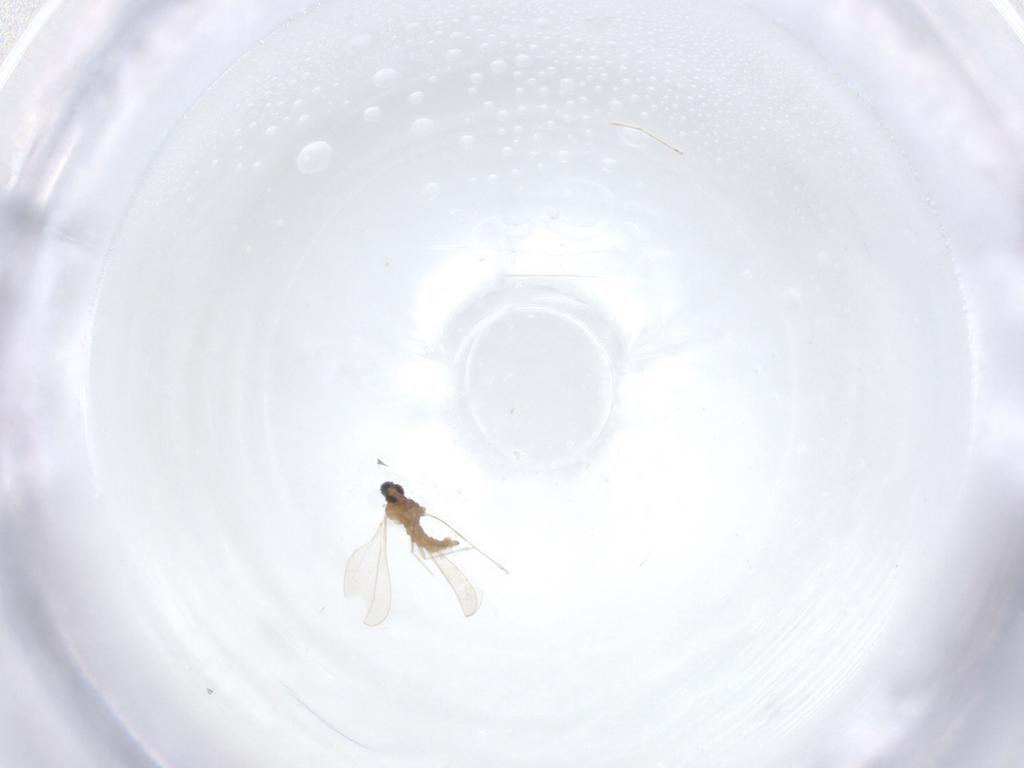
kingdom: Animalia
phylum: Arthropoda
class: Insecta
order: Diptera
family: Cecidomyiidae
